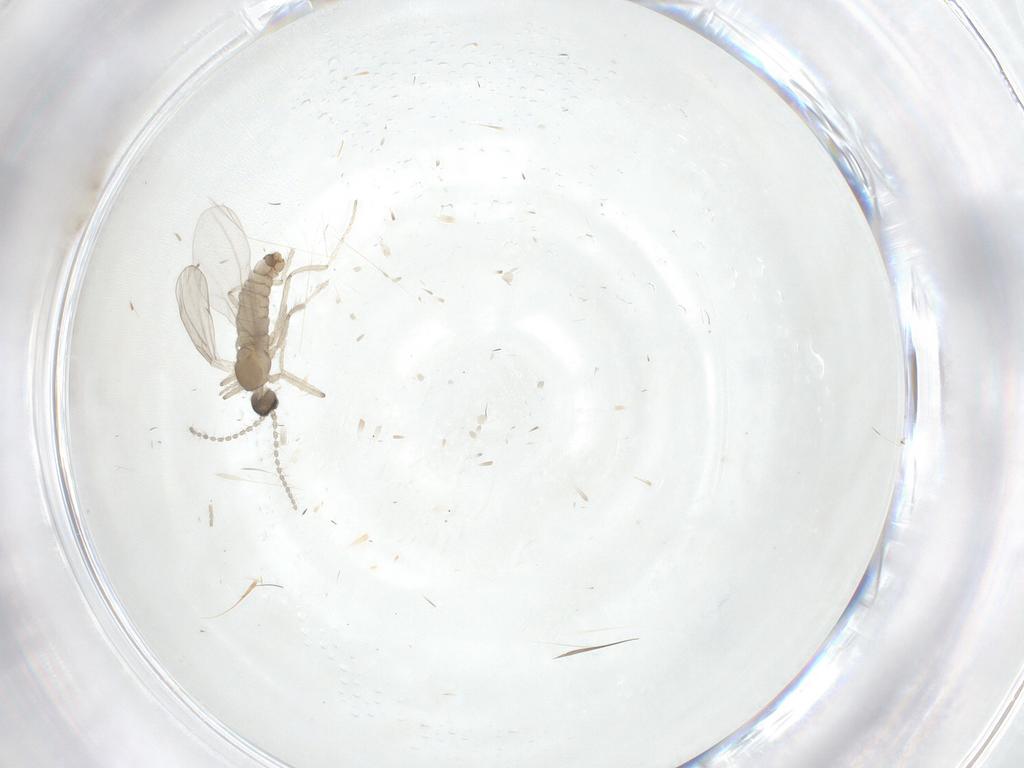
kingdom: Animalia
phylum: Arthropoda
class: Insecta
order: Diptera
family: Cecidomyiidae
